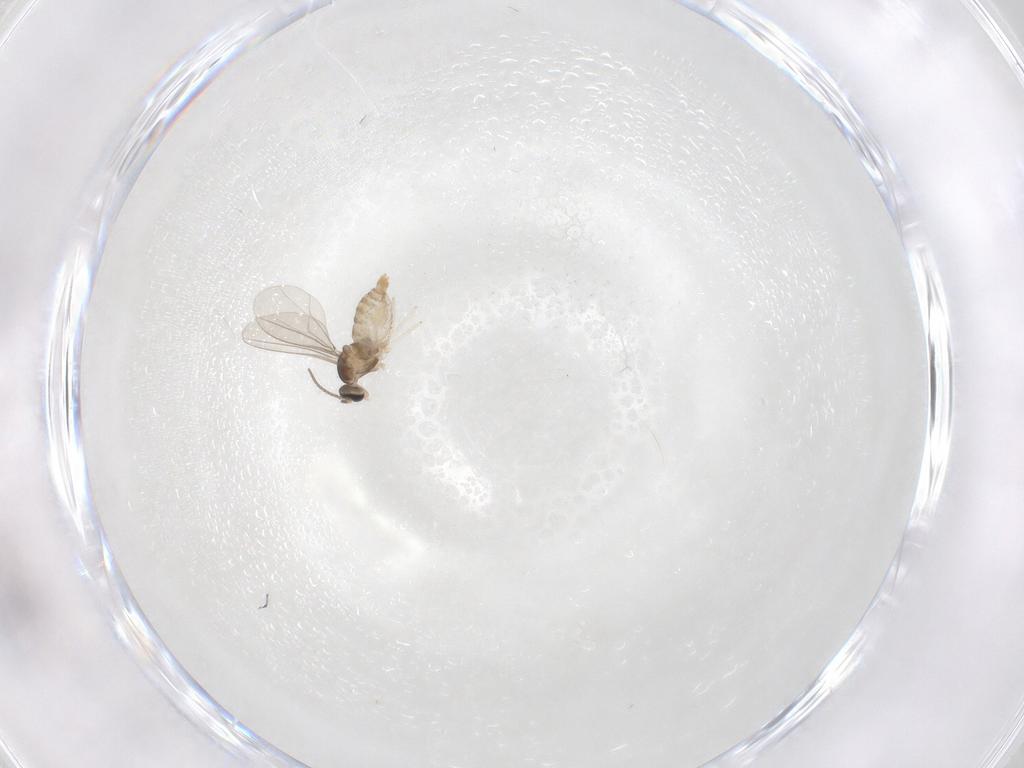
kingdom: Animalia
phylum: Arthropoda
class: Insecta
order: Diptera
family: Cecidomyiidae
